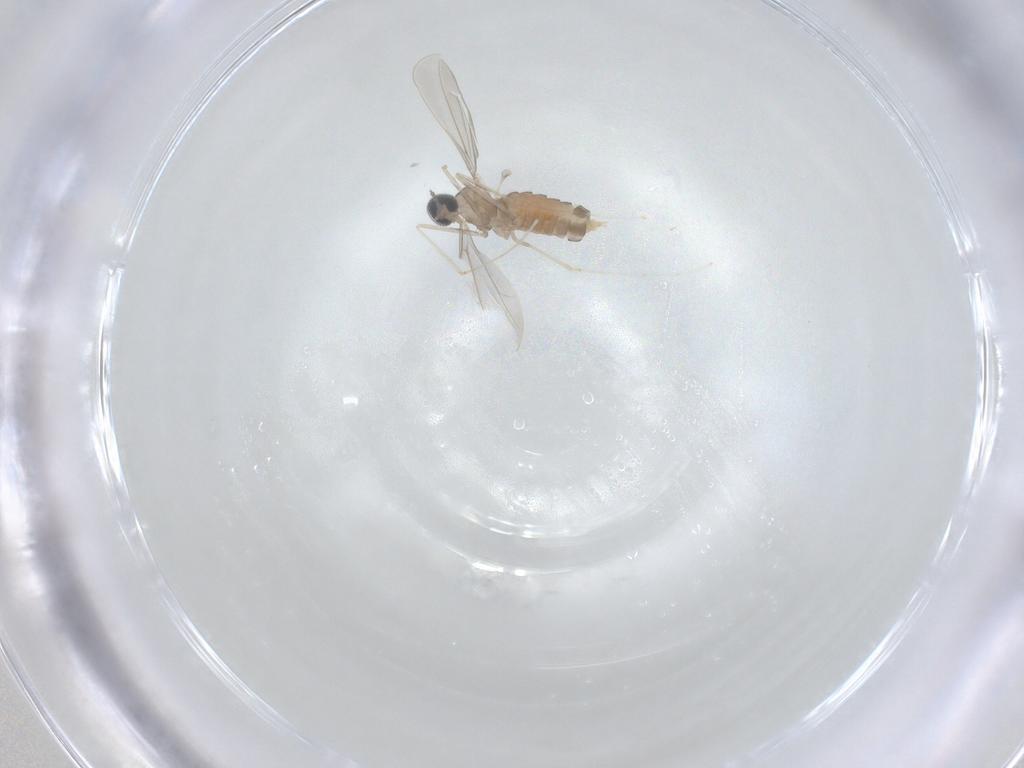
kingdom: Animalia
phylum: Arthropoda
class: Insecta
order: Diptera
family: Cecidomyiidae
